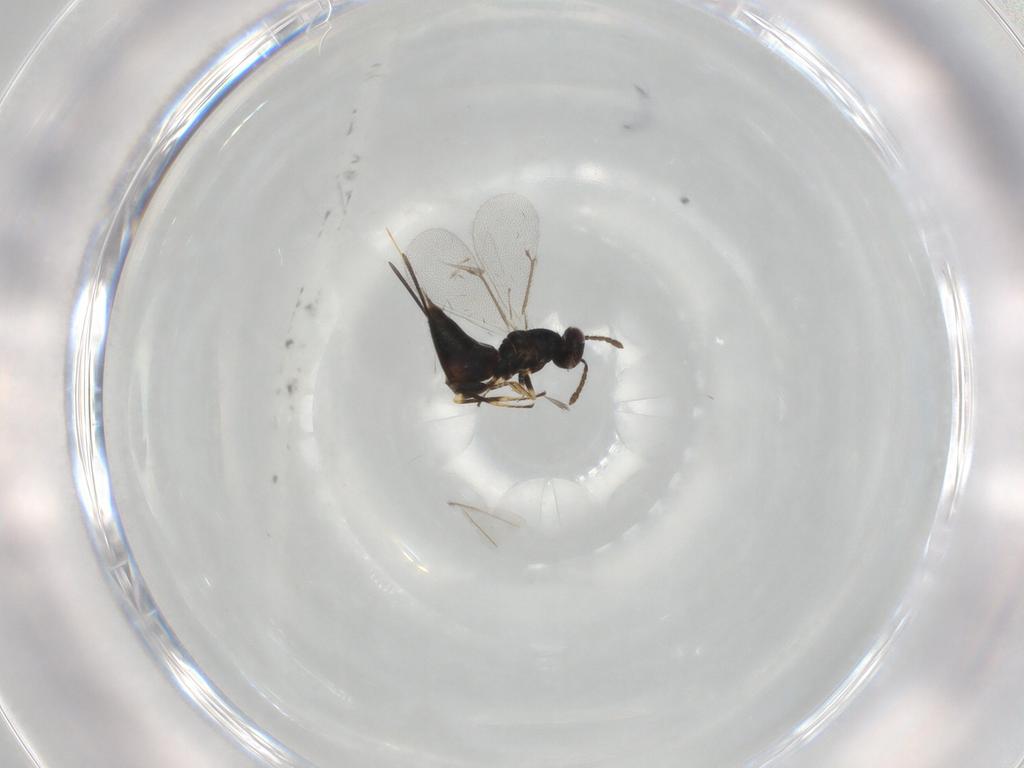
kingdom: Animalia
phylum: Arthropoda
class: Insecta
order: Hymenoptera
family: Eulophidae
